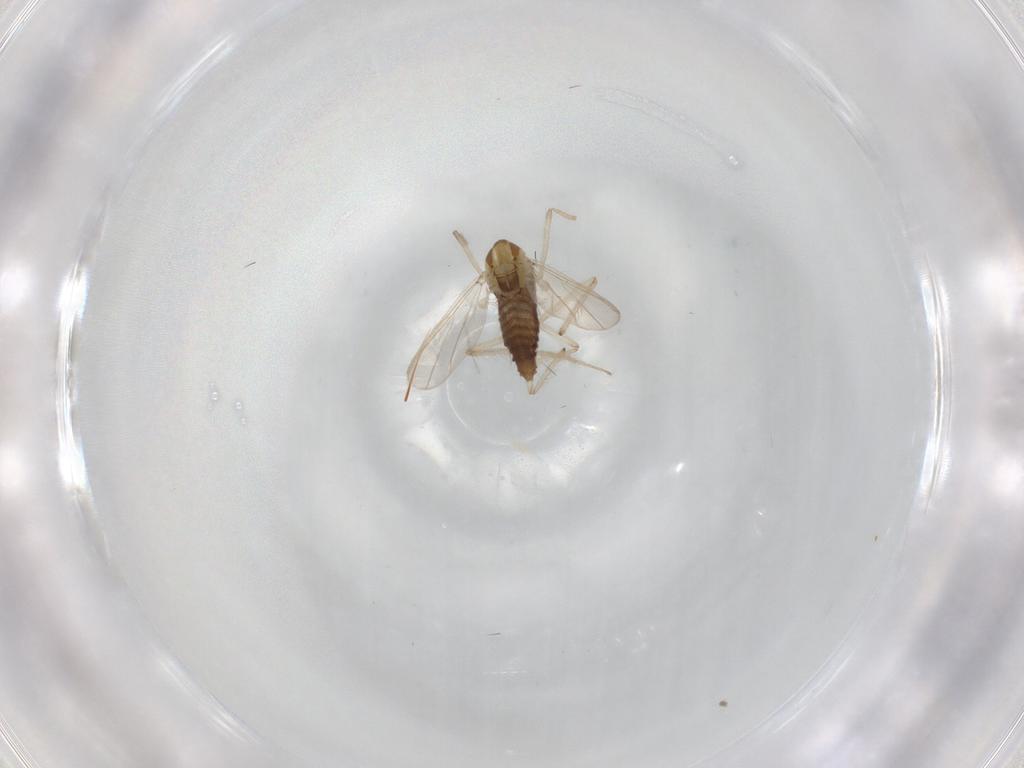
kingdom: Animalia
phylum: Arthropoda
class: Insecta
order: Diptera
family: Chironomidae
